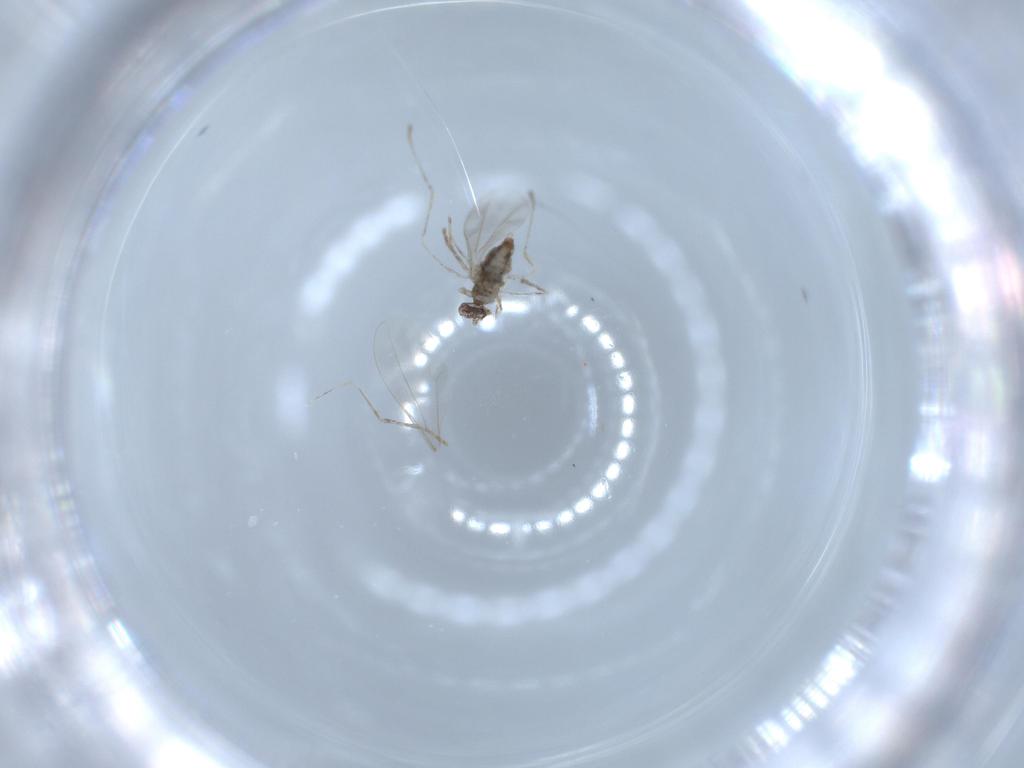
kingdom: Animalia
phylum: Arthropoda
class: Insecta
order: Diptera
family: Cecidomyiidae
